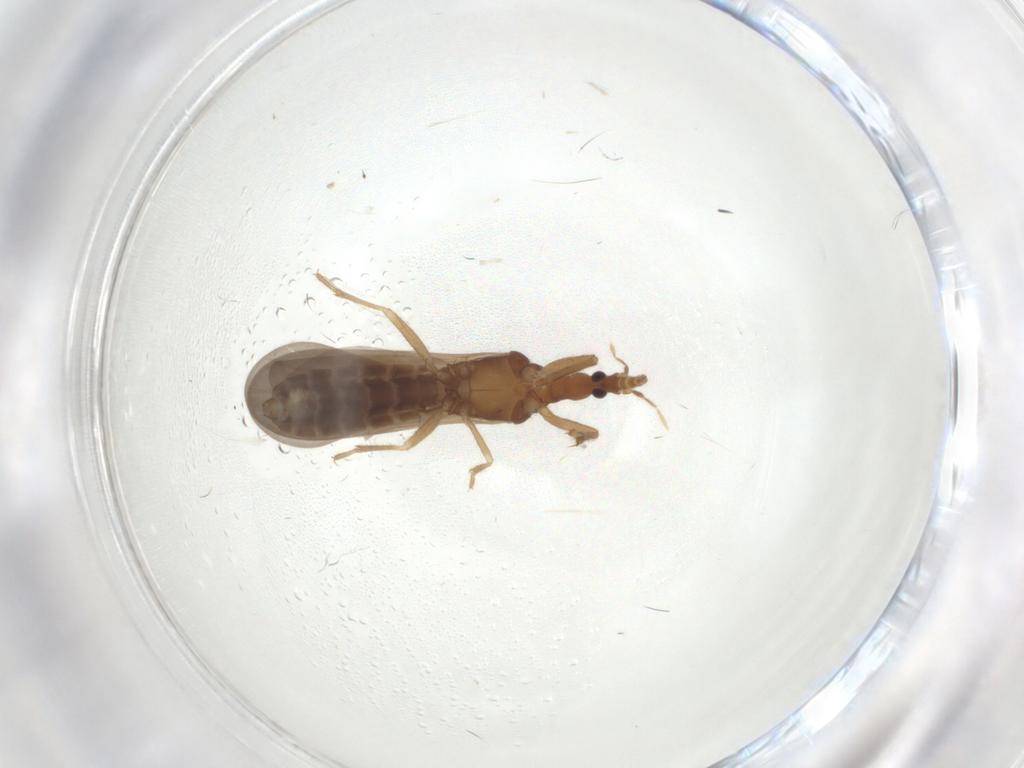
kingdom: Animalia
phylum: Arthropoda
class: Insecta
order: Hemiptera
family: Enicocephalidae
